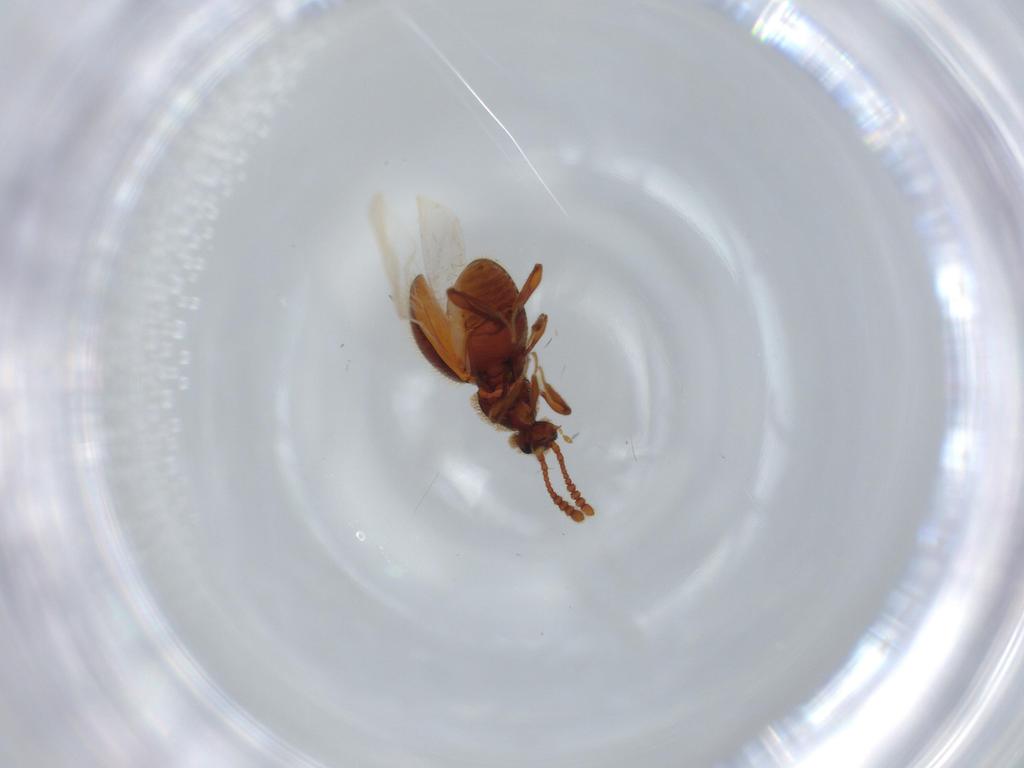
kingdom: Animalia
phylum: Arthropoda
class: Insecta
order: Coleoptera
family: Staphylinidae
